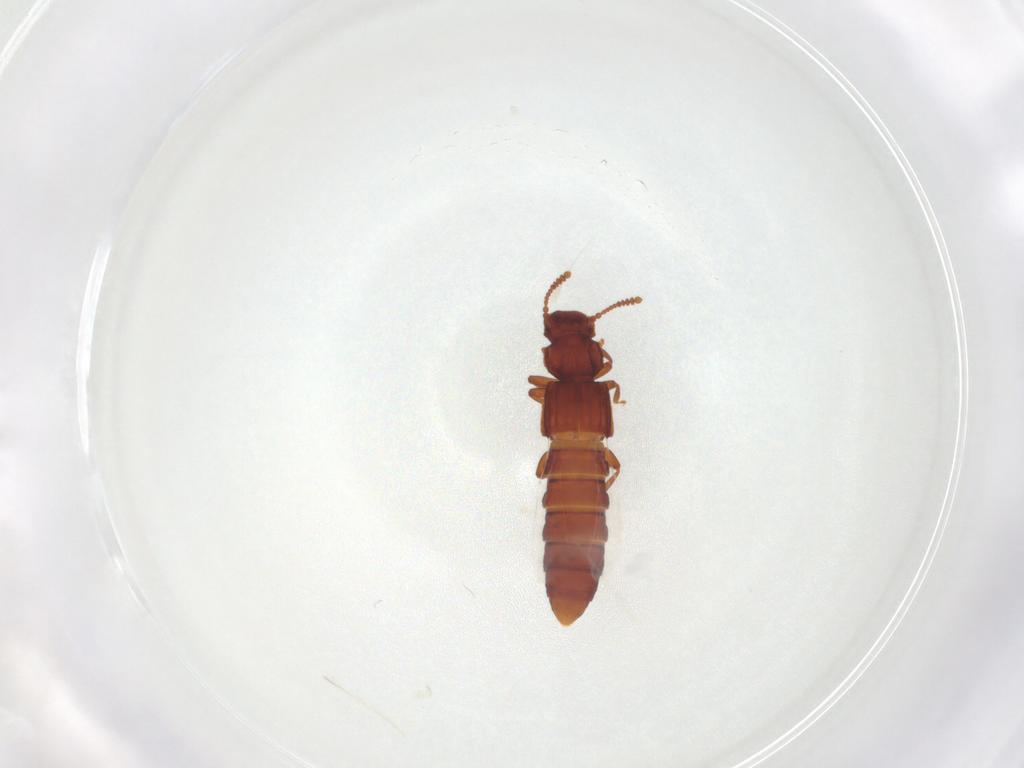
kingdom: Animalia
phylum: Arthropoda
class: Insecta
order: Coleoptera
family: Staphylinidae
